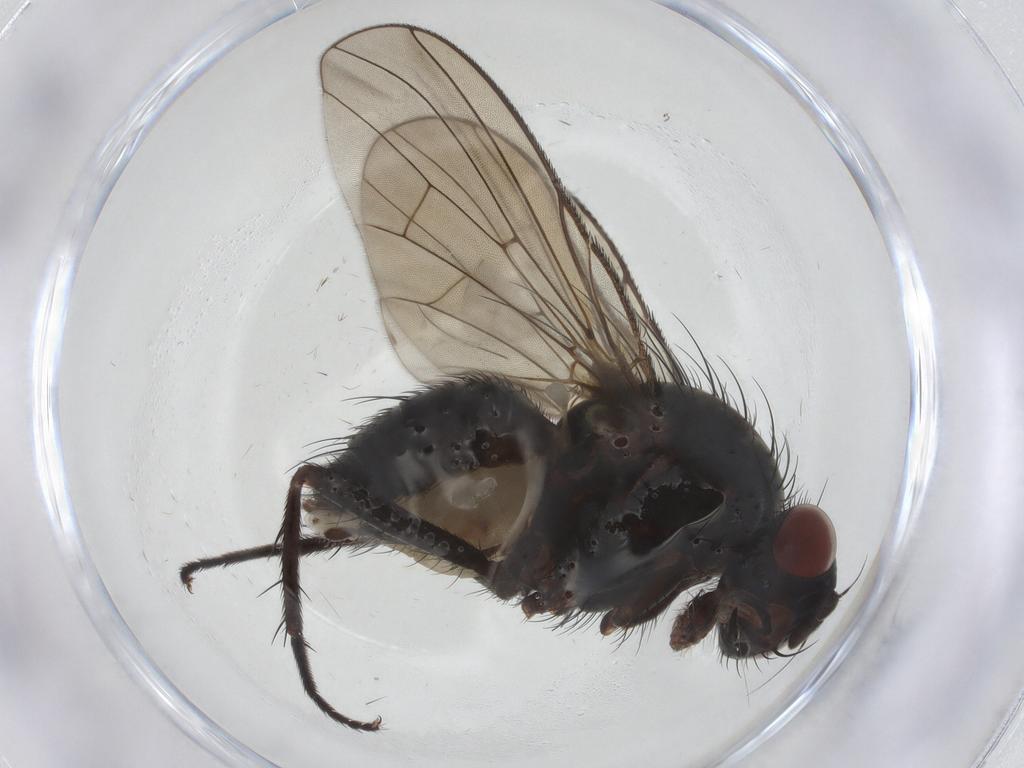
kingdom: Animalia
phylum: Arthropoda
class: Insecta
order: Diptera
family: Anthomyiidae
